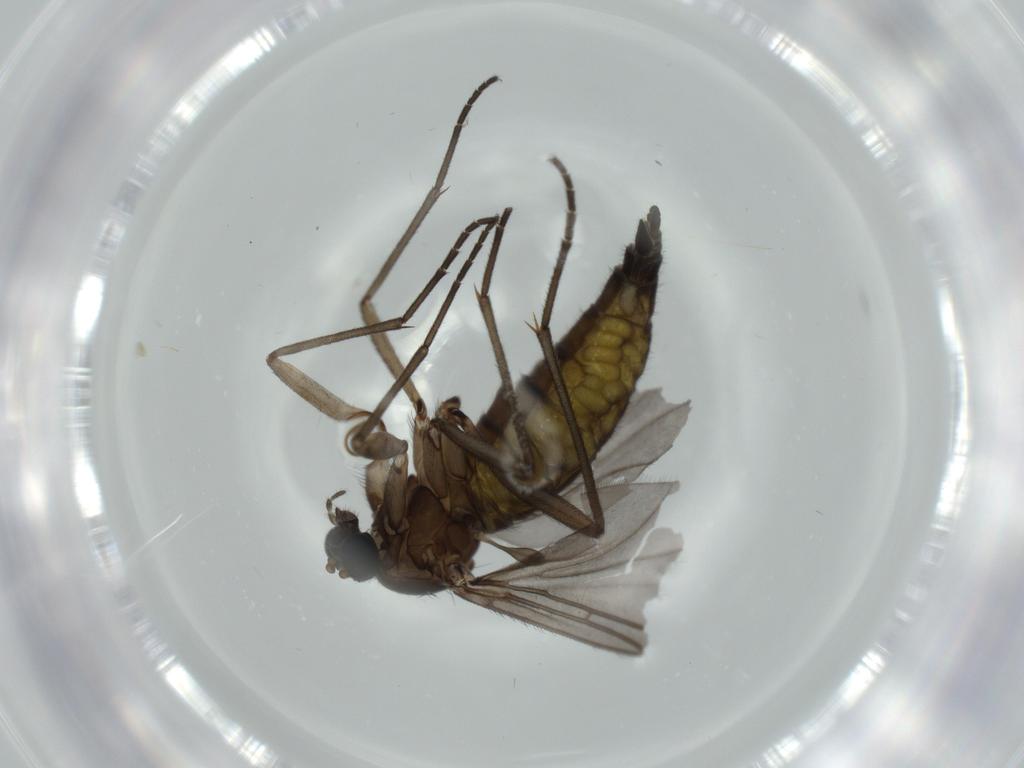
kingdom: Animalia
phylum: Arthropoda
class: Insecta
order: Diptera
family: Sciaridae
